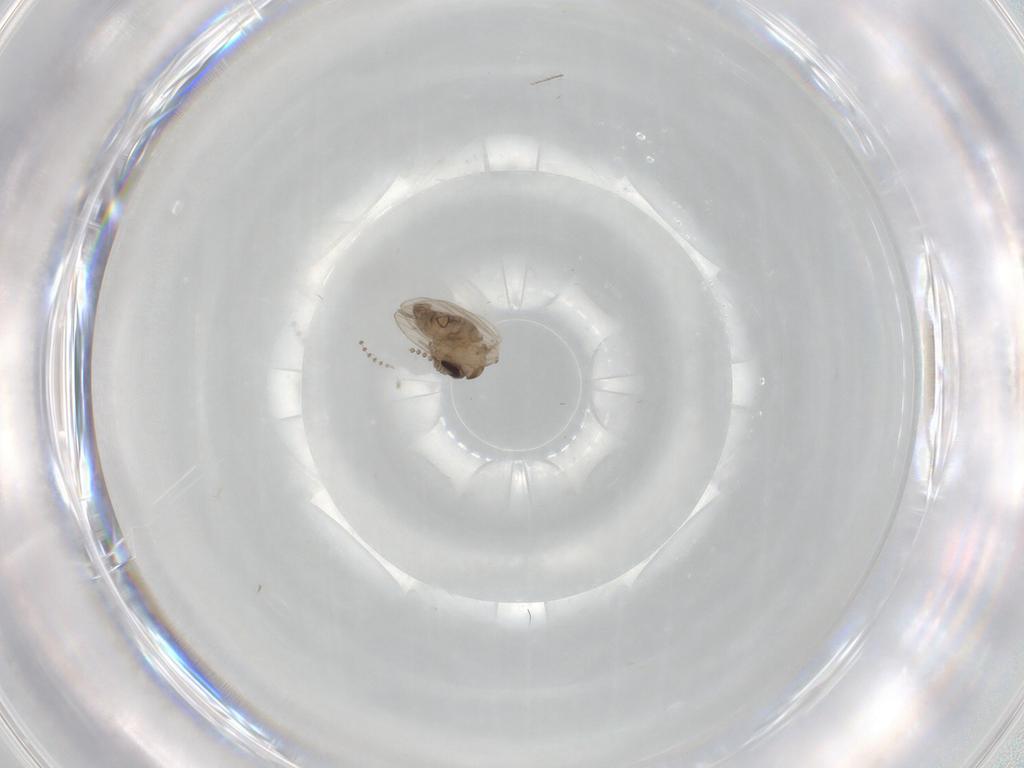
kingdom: Animalia
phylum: Arthropoda
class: Insecta
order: Diptera
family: Psychodidae
